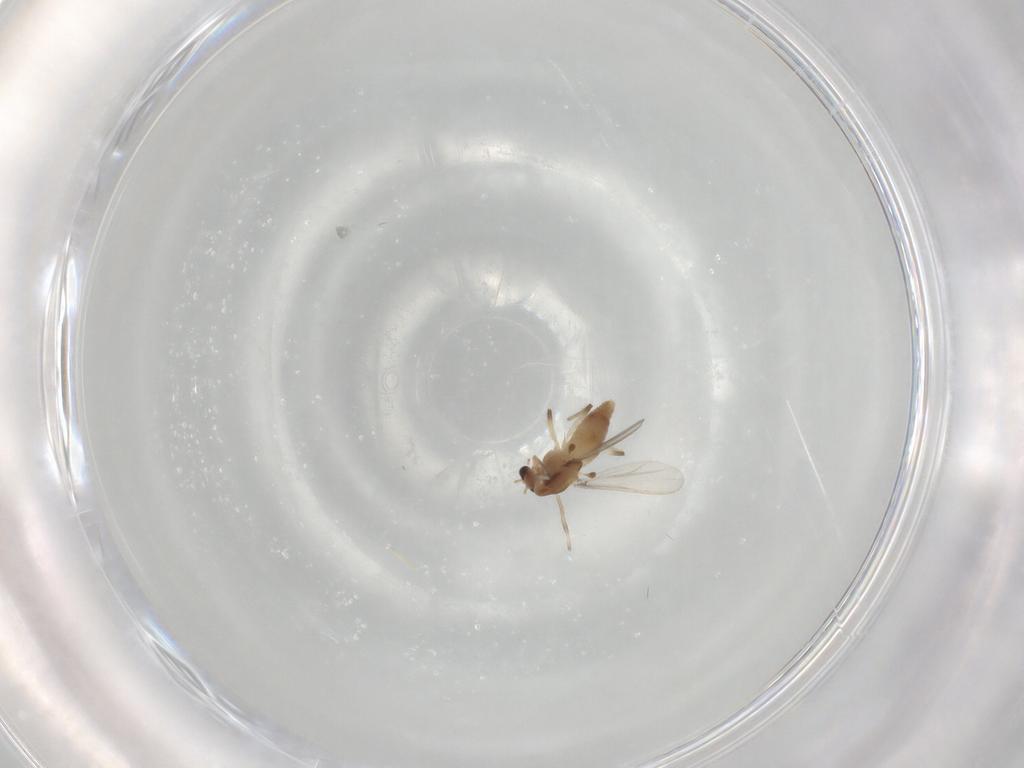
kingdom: Animalia
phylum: Arthropoda
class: Insecta
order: Diptera
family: Chironomidae
